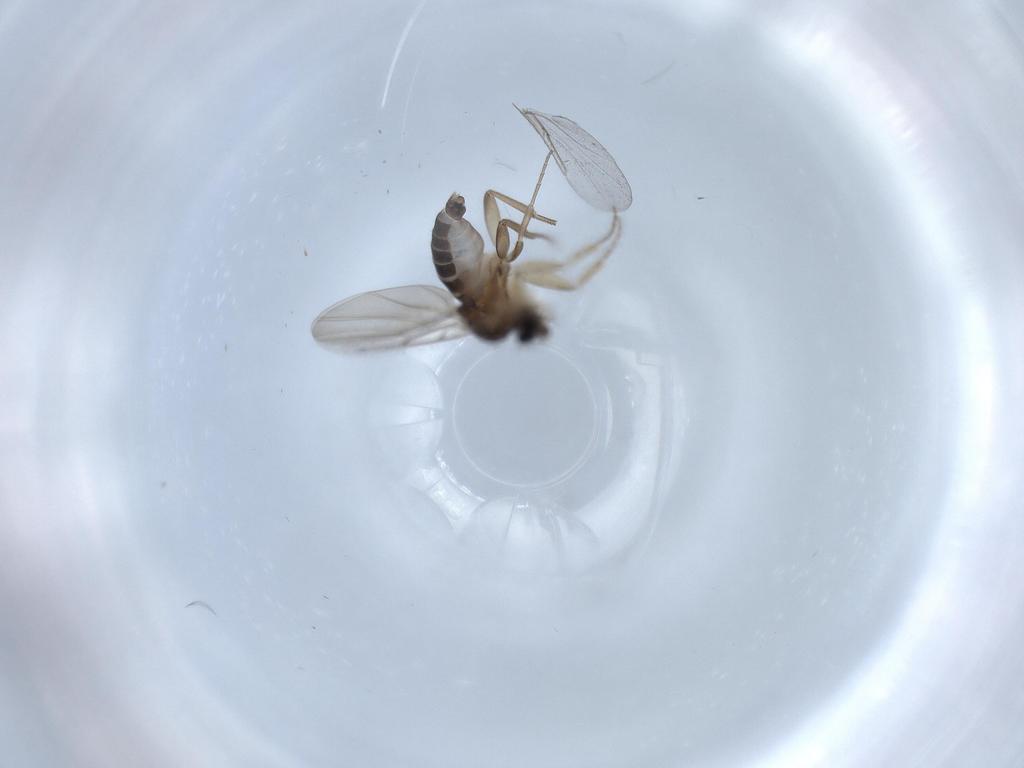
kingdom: Animalia
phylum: Arthropoda
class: Insecta
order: Diptera
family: Phoridae
